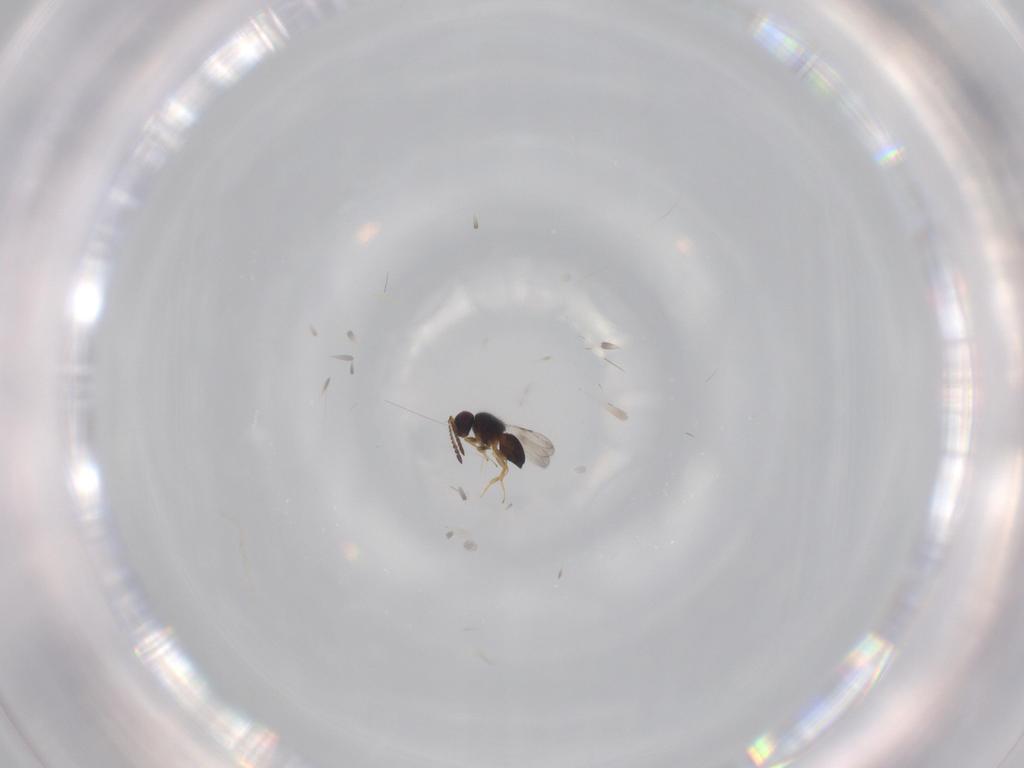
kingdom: Animalia
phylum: Arthropoda
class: Insecta
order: Hymenoptera
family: Ceraphronidae
